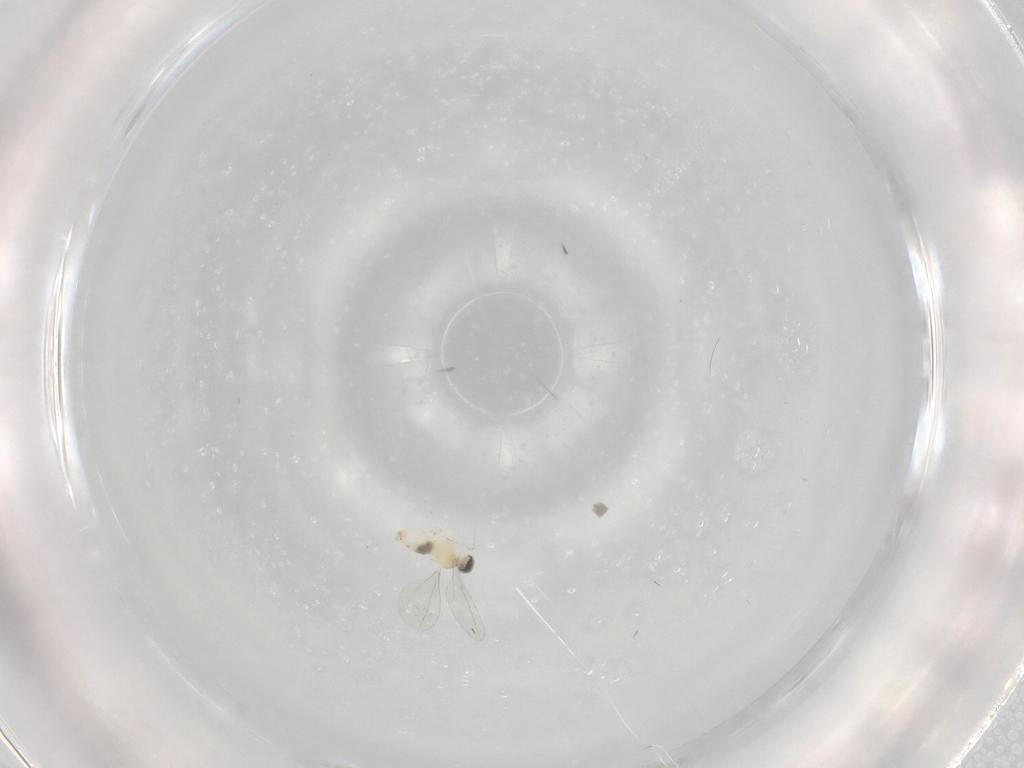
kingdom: Animalia
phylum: Arthropoda
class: Insecta
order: Diptera
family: Cecidomyiidae
